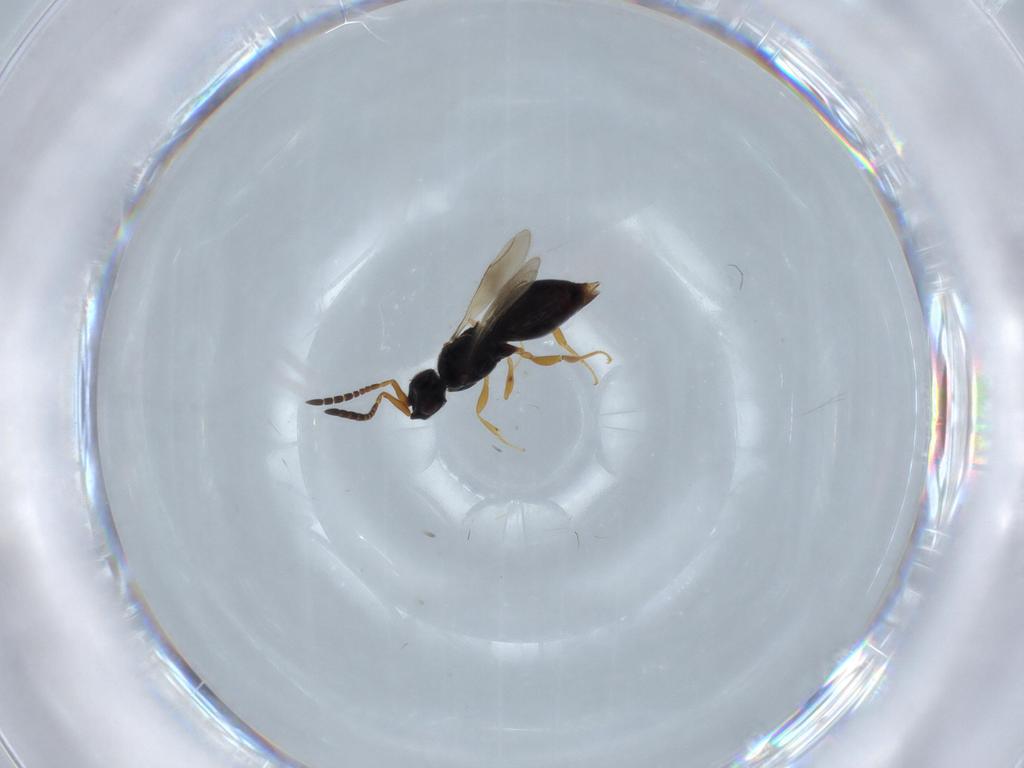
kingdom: Animalia
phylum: Arthropoda
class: Insecta
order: Hymenoptera
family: Ceraphronidae
